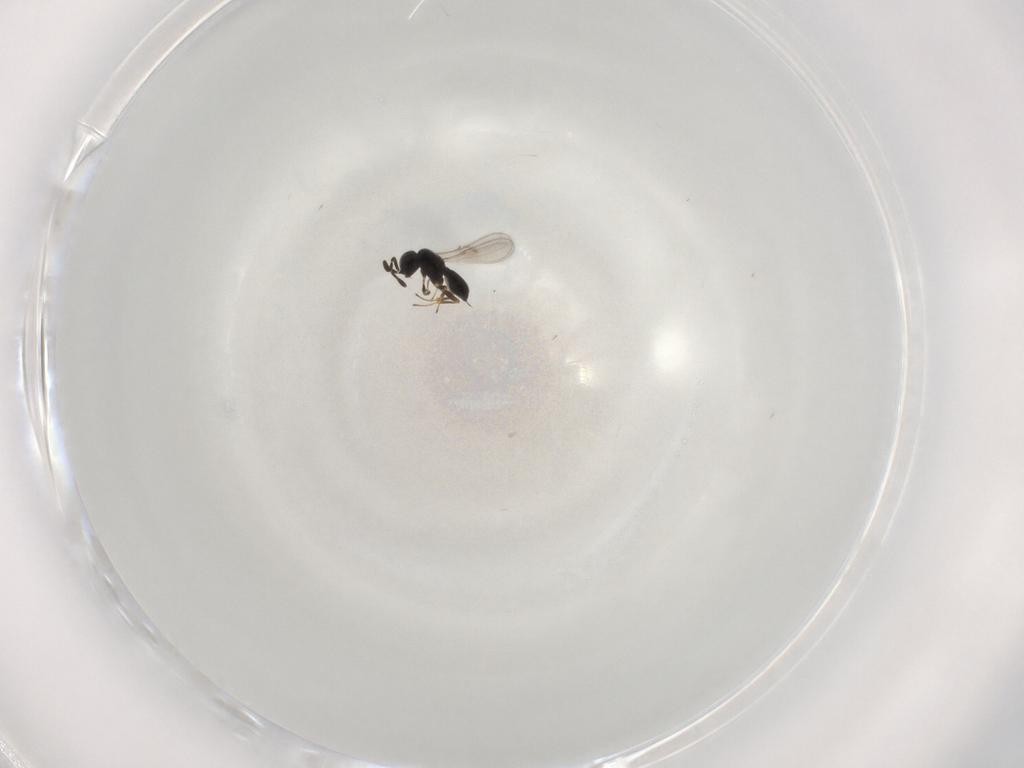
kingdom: Animalia
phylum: Arthropoda
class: Insecta
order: Hymenoptera
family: Scelionidae
